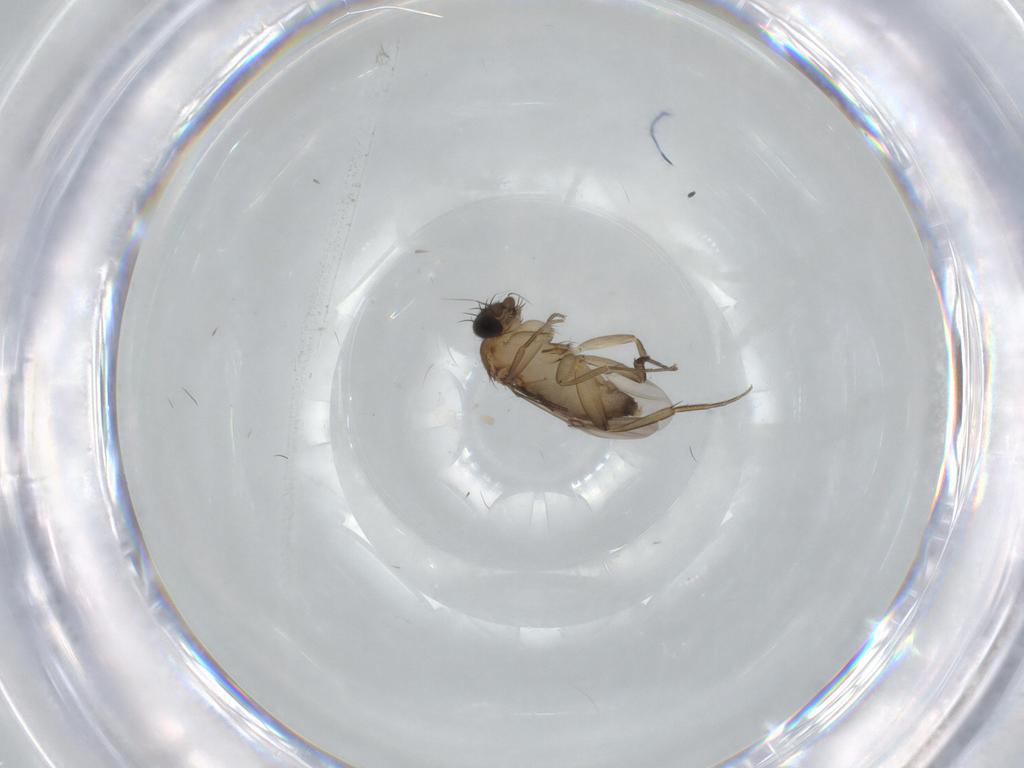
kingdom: Animalia
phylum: Arthropoda
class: Insecta
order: Diptera
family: Phoridae
